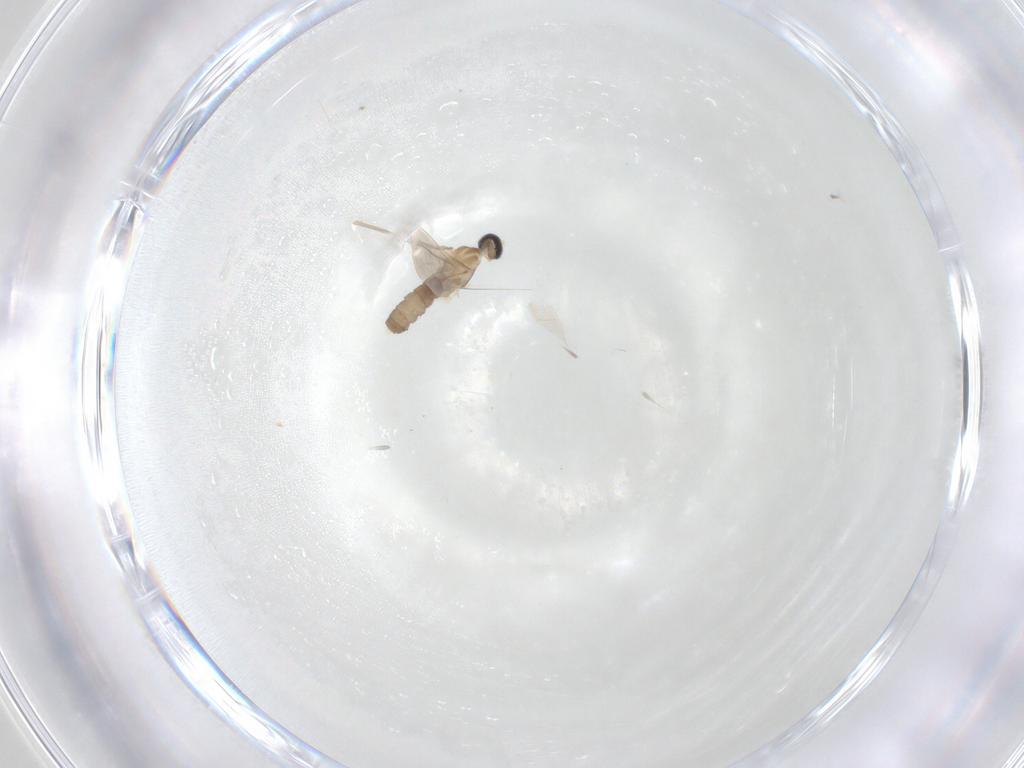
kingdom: Animalia
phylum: Arthropoda
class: Insecta
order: Diptera
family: Cecidomyiidae
